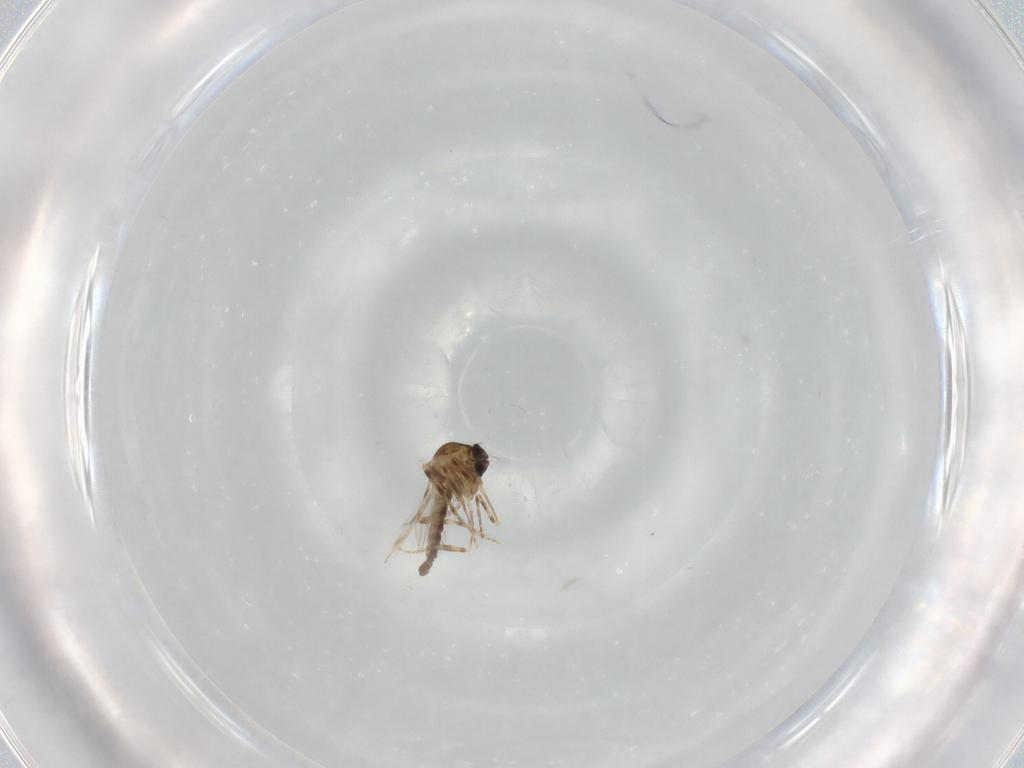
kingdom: Animalia
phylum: Arthropoda
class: Insecta
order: Diptera
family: Ceratopogonidae
